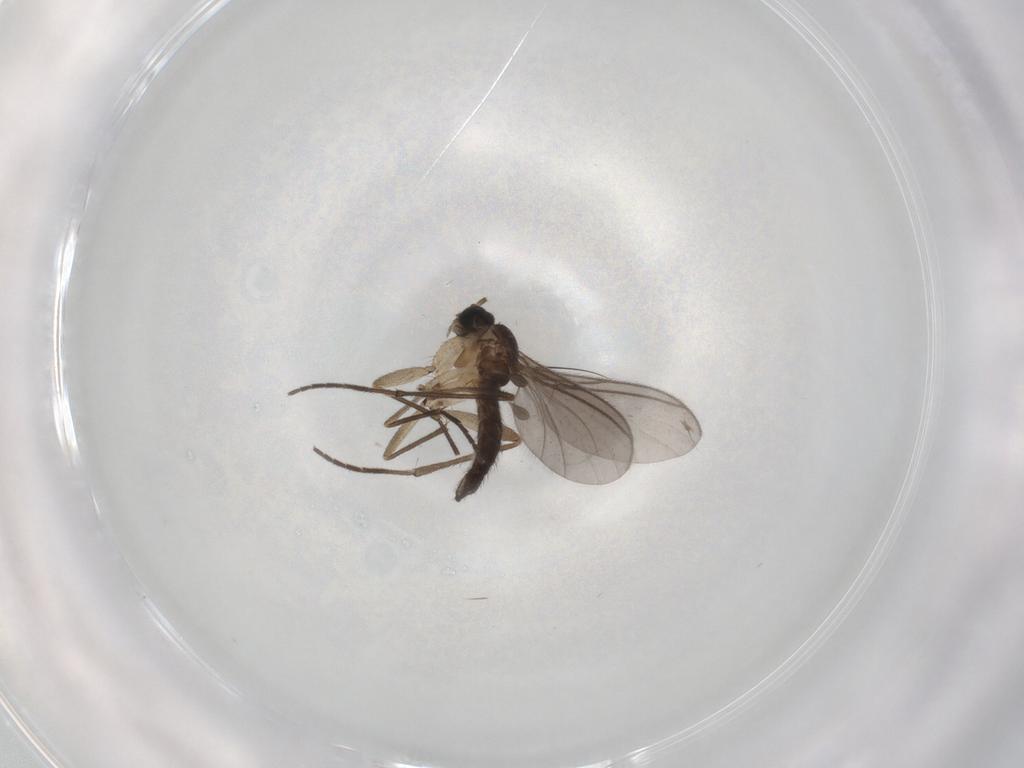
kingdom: Animalia
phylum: Arthropoda
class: Insecta
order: Diptera
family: Sciaridae
